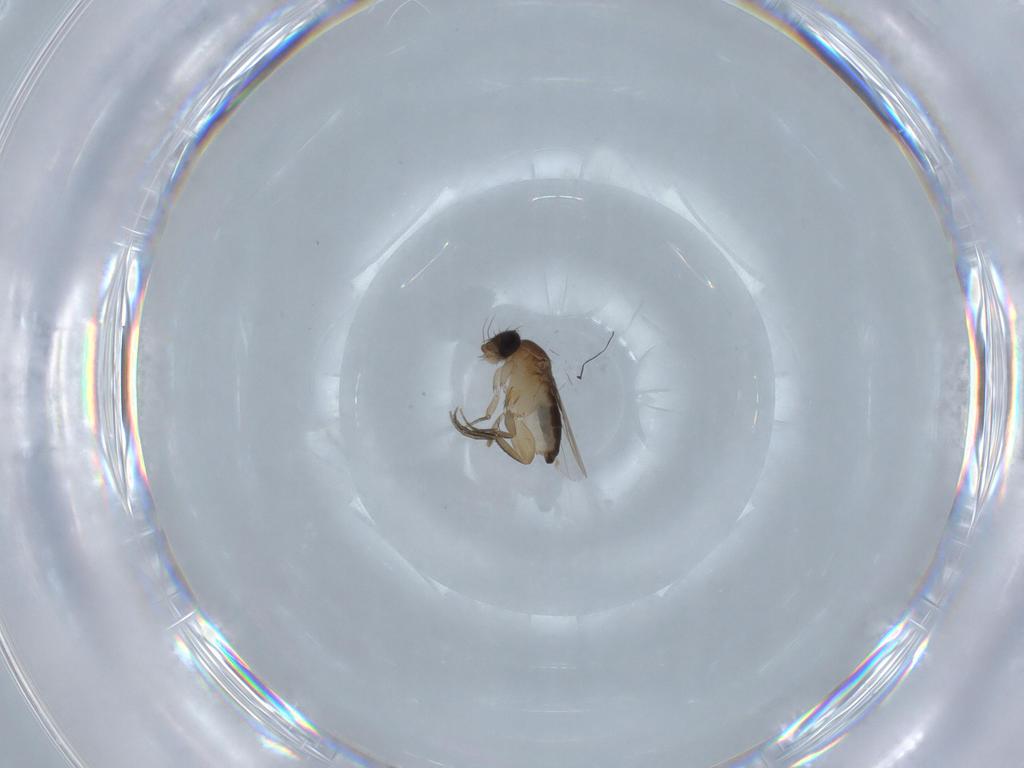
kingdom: Animalia
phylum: Arthropoda
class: Insecta
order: Diptera
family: Phoridae
